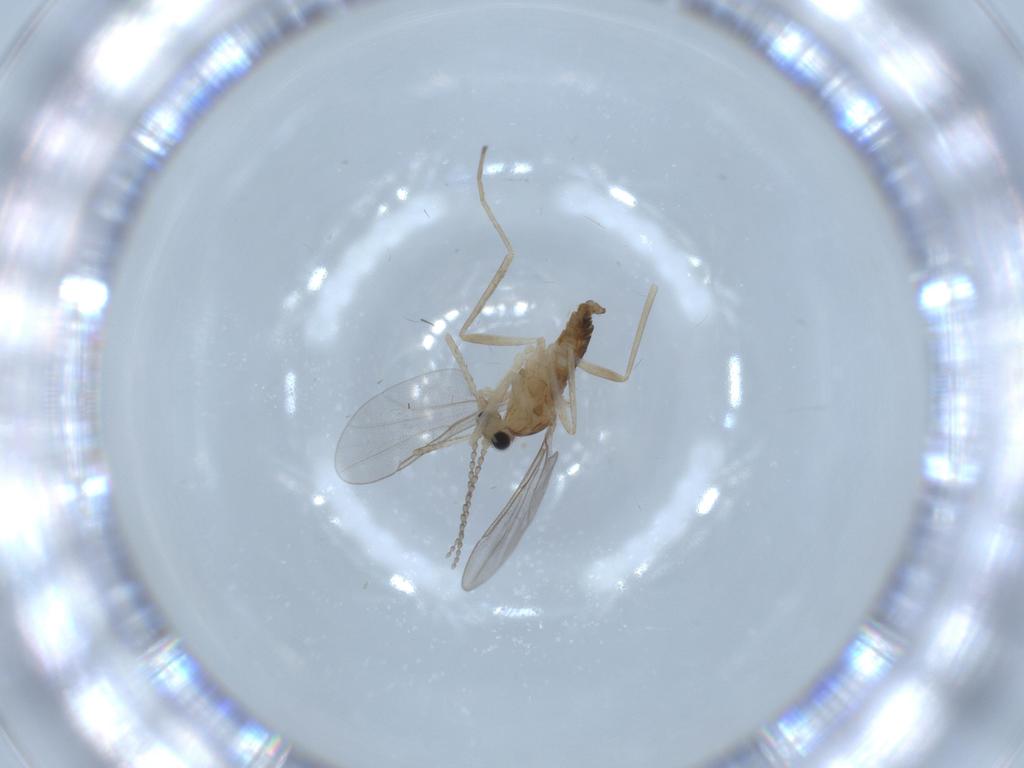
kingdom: Animalia
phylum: Arthropoda
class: Insecta
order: Diptera
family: Cecidomyiidae
